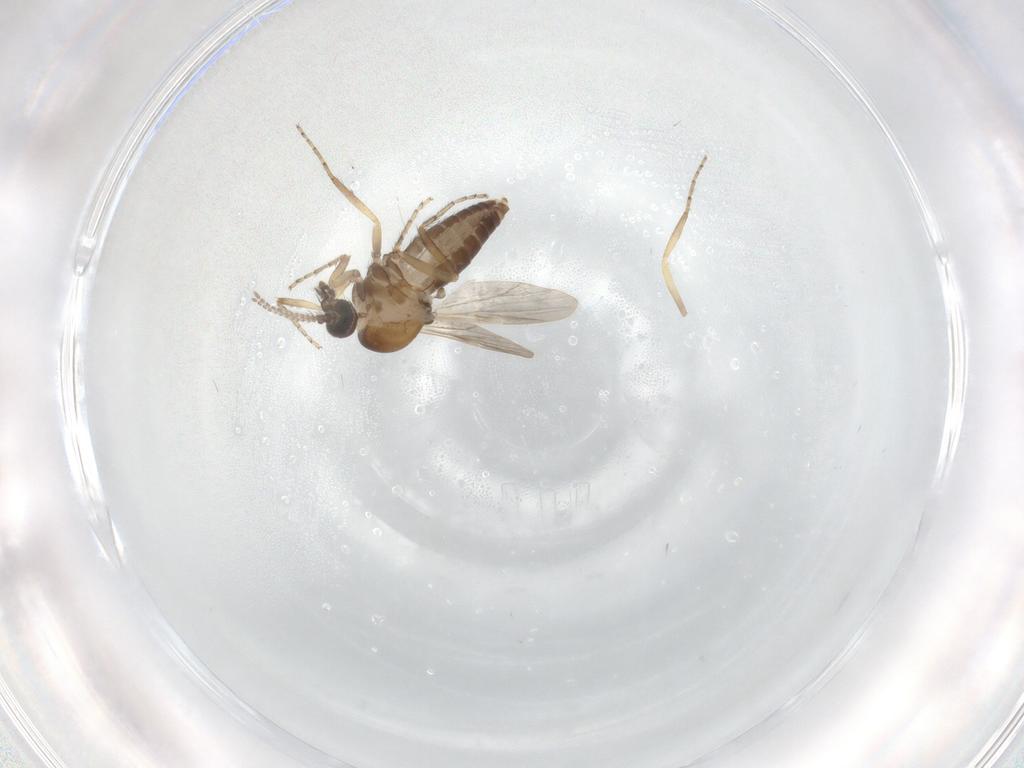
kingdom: Animalia
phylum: Arthropoda
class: Insecta
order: Diptera
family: Ceratopogonidae
